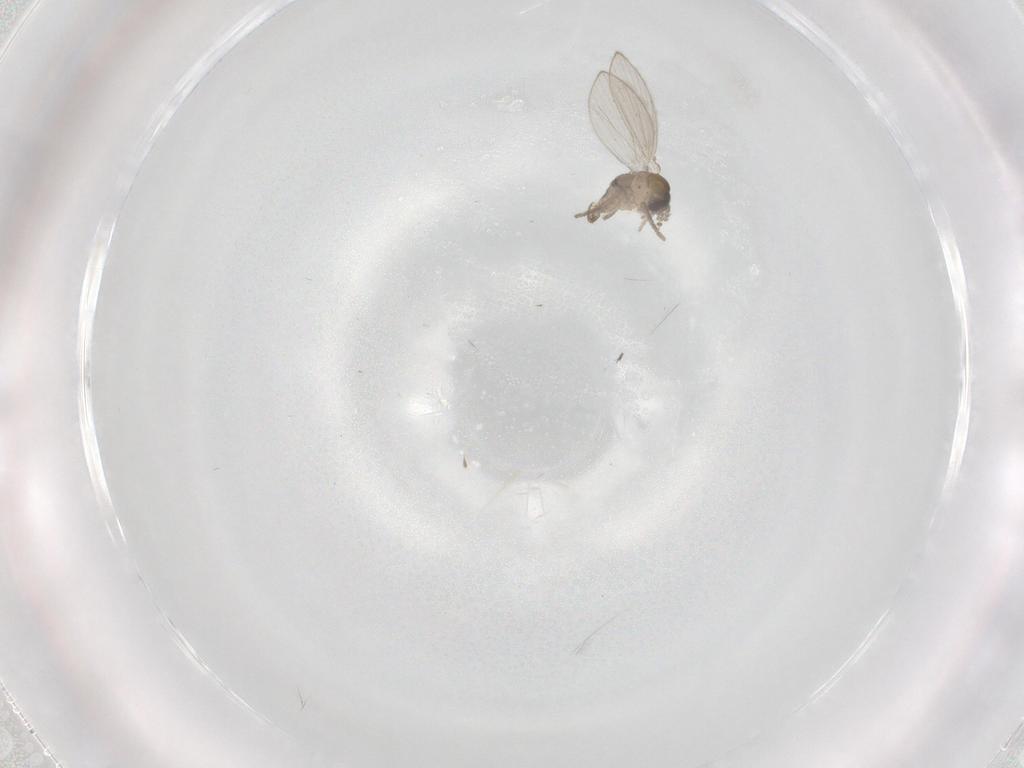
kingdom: Animalia
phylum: Arthropoda
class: Insecta
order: Diptera
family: Psychodidae
